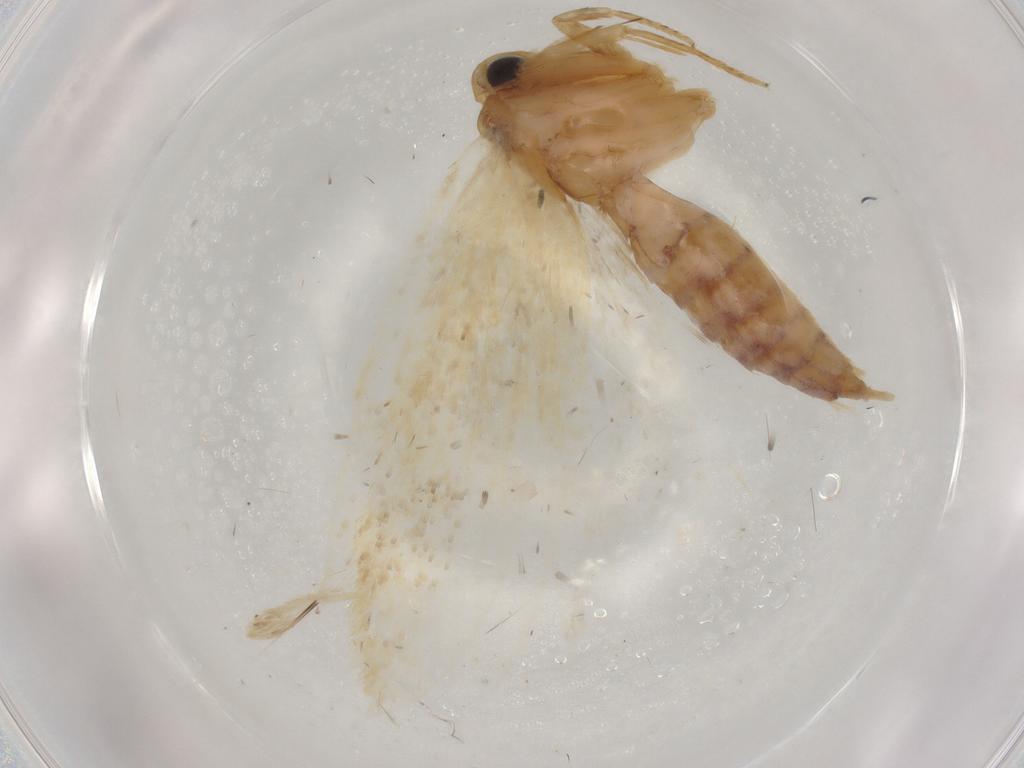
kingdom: Animalia
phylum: Arthropoda
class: Insecta
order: Lepidoptera
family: Depressariidae
